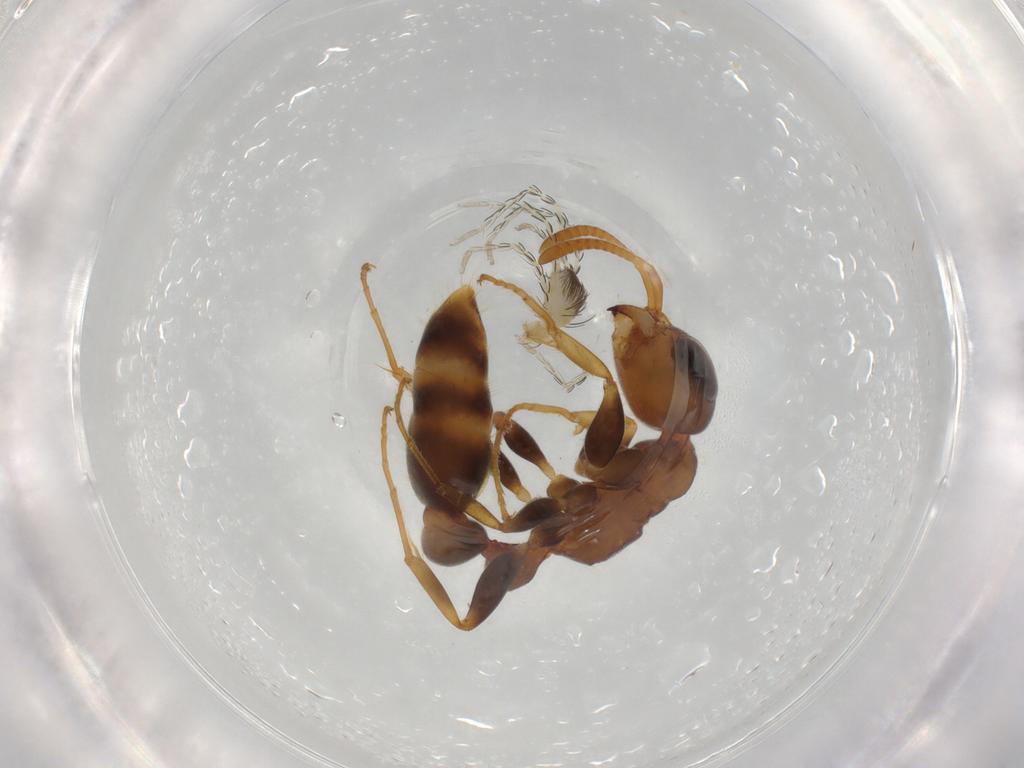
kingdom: Animalia
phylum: Arthropoda
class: Insecta
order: Hymenoptera
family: Formicidae
